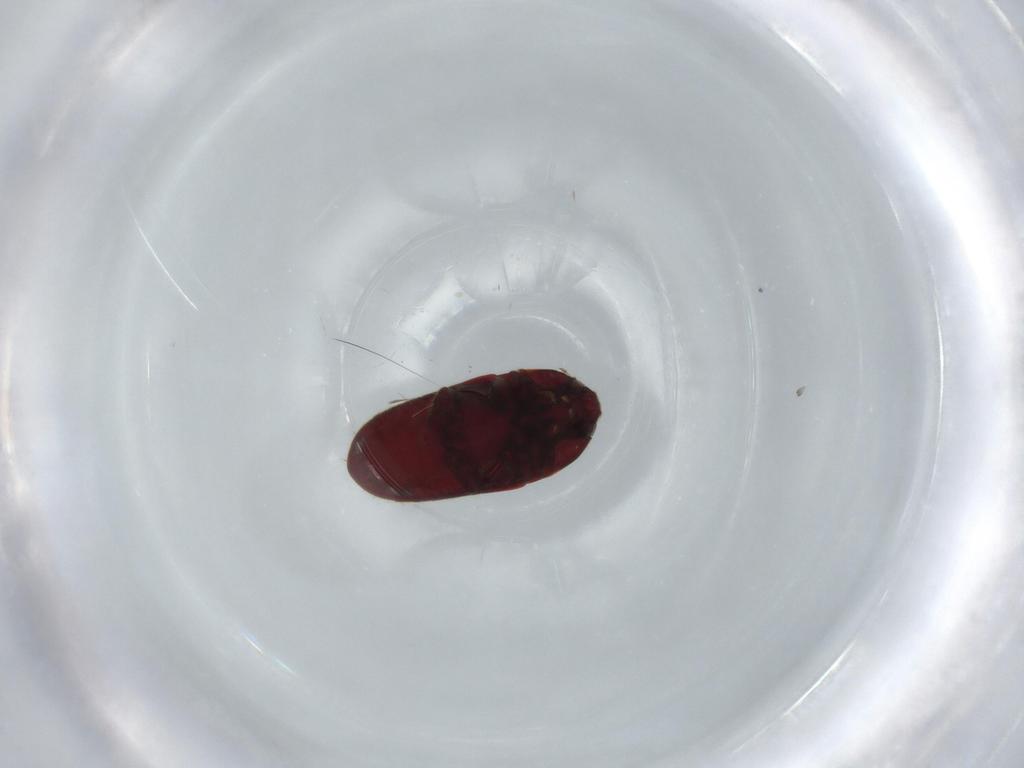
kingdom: Animalia
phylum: Arthropoda
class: Insecta
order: Coleoptera
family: Throscidae
